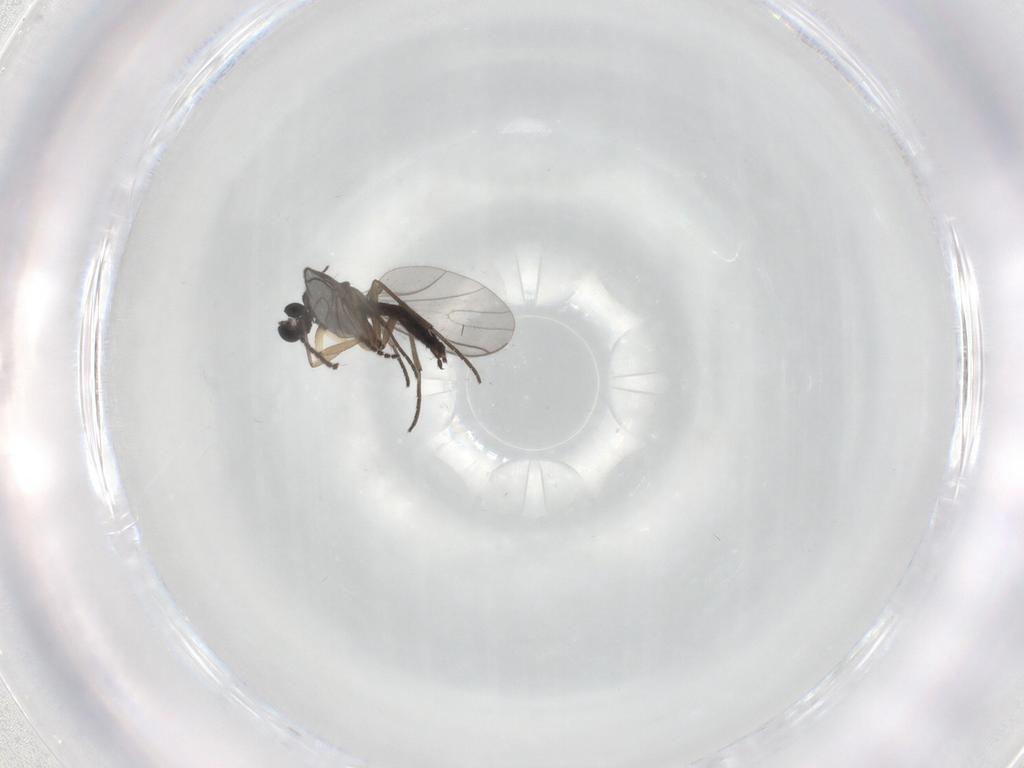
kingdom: Animalia
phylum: Arthropoda
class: Insecta
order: Diptera
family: Sciaridae
